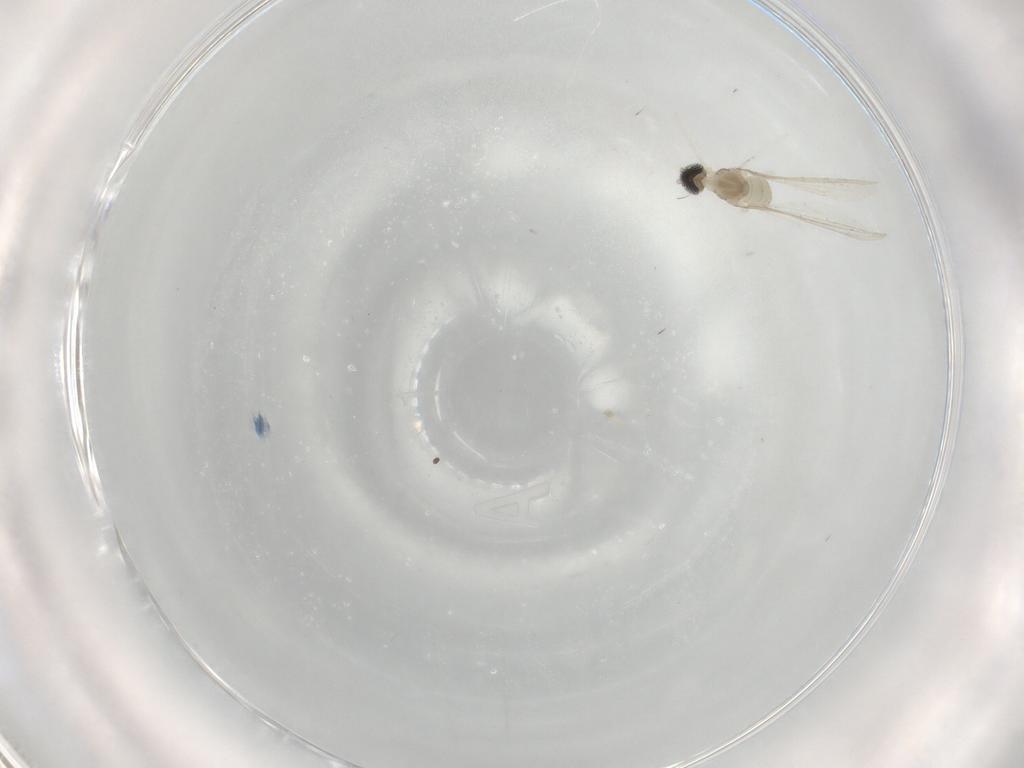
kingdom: Animalia
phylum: Arthropoda
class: Insecta
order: Diptera
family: Cecidomyiidae
